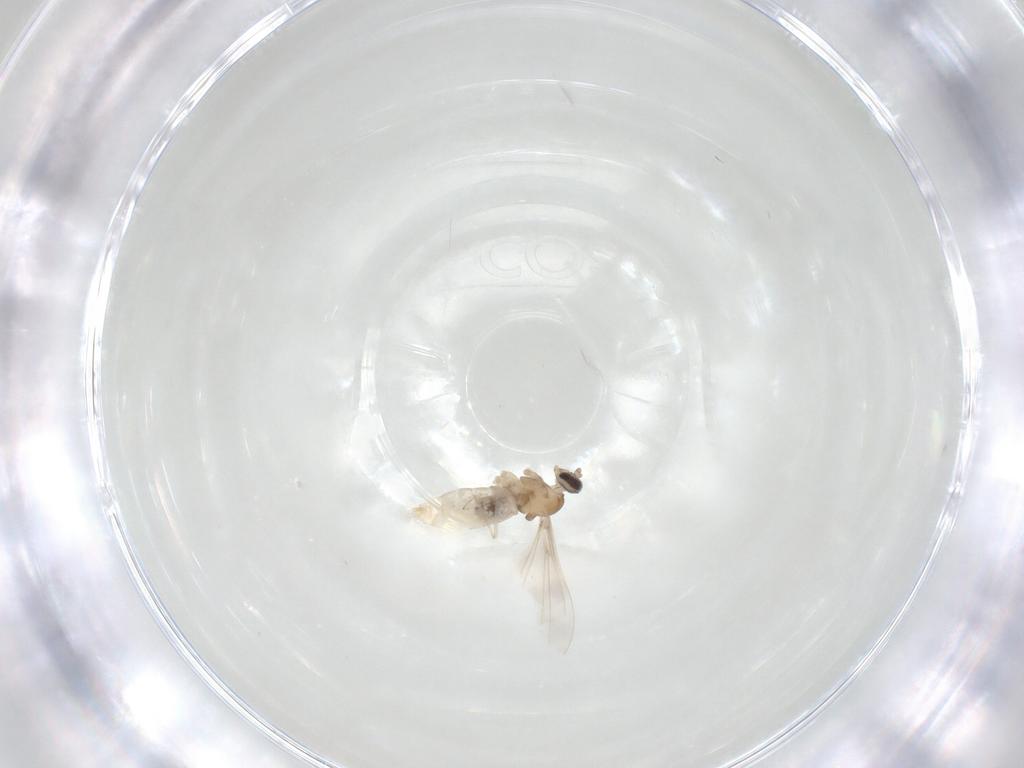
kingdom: Animalia
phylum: Arthropoda
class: Insecta
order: Diptera
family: Cecidomyiidae
